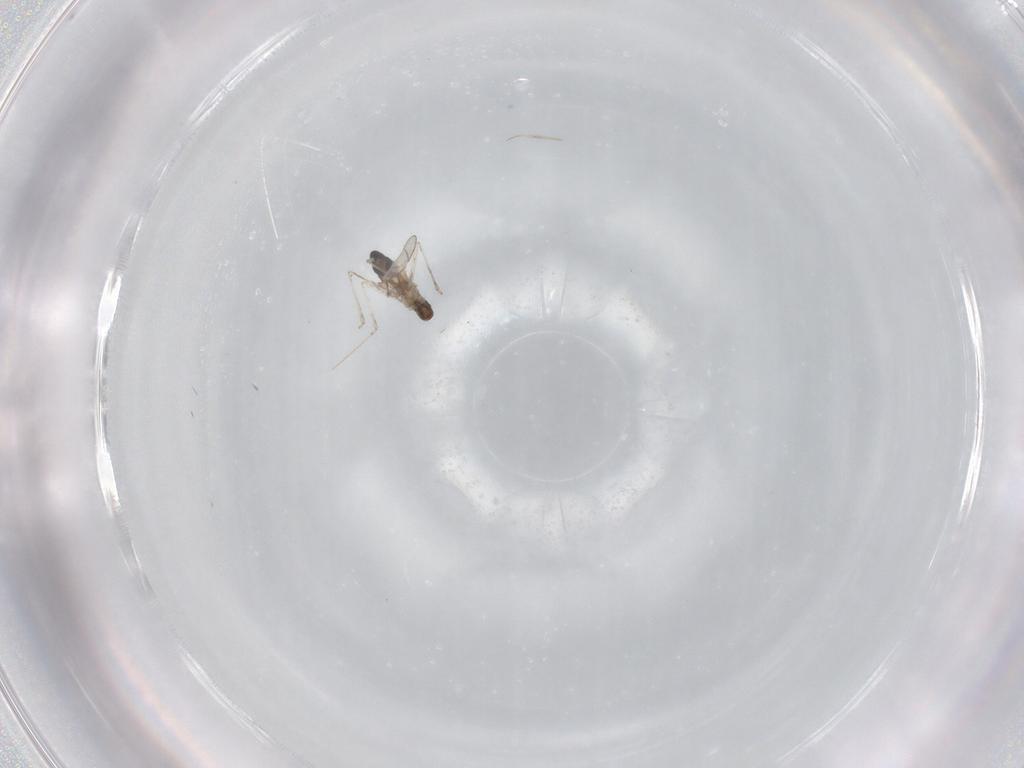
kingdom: Animalia
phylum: Arthropoda
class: Insecta
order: Diptera
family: Cecidomyiidae
